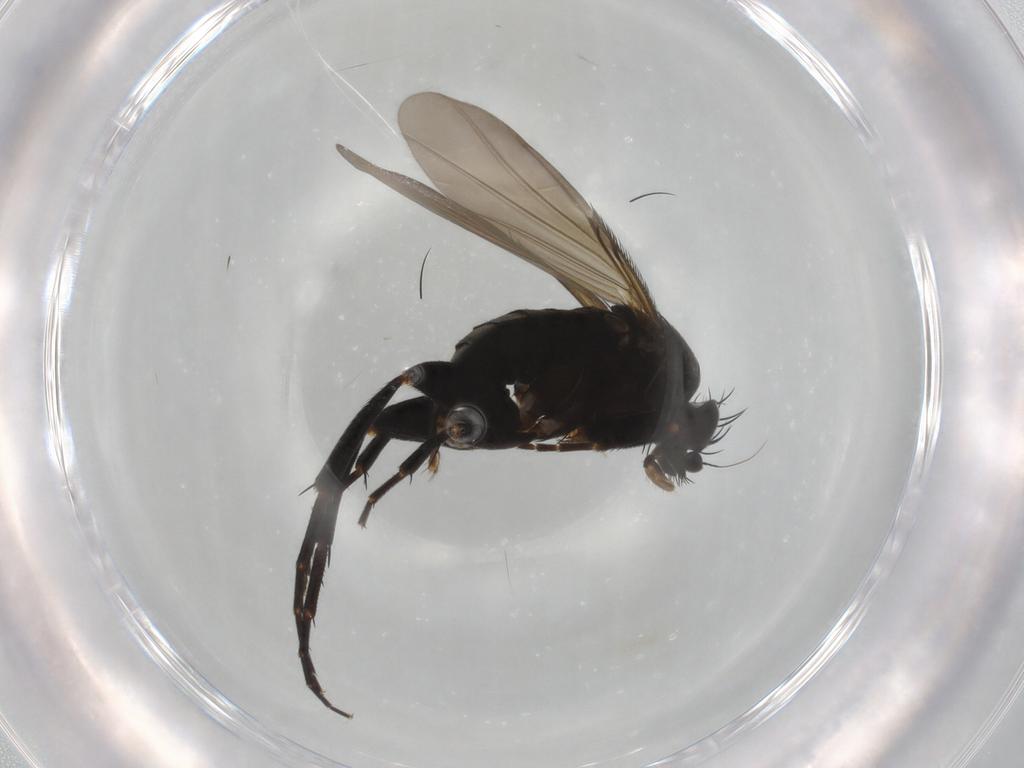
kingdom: Animalia
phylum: Arthropoda
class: Insecta
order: Diptera
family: Phoridae
